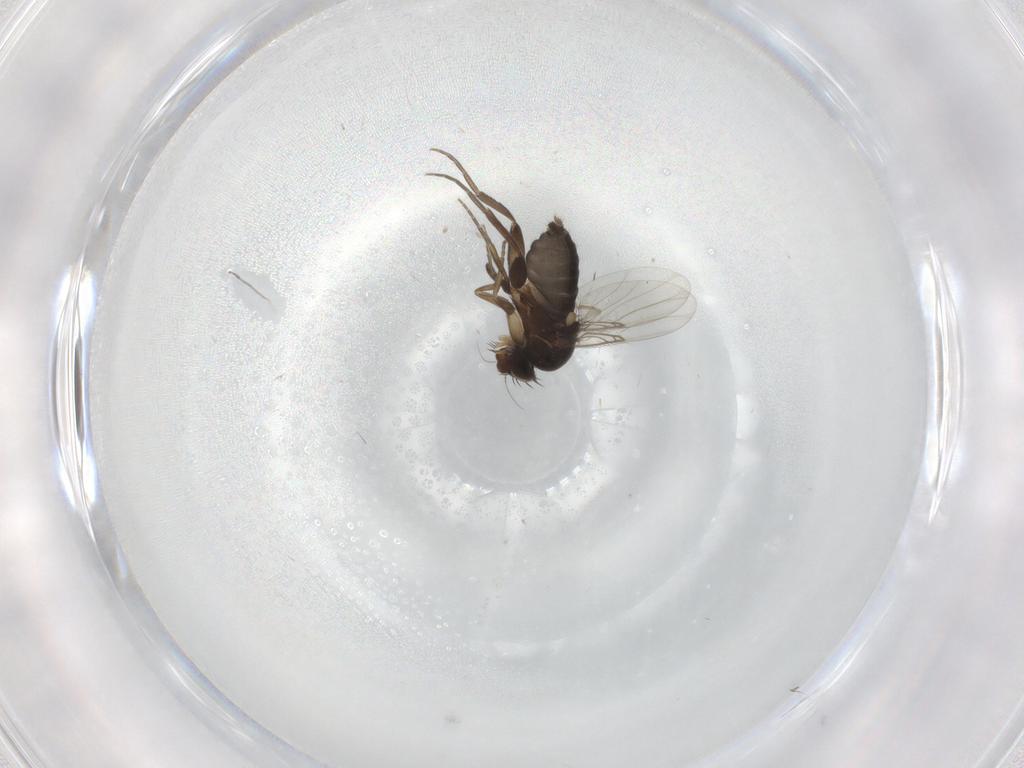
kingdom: Animalia
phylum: Arthropoda
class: Insecta
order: Diptera
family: Phoridae
